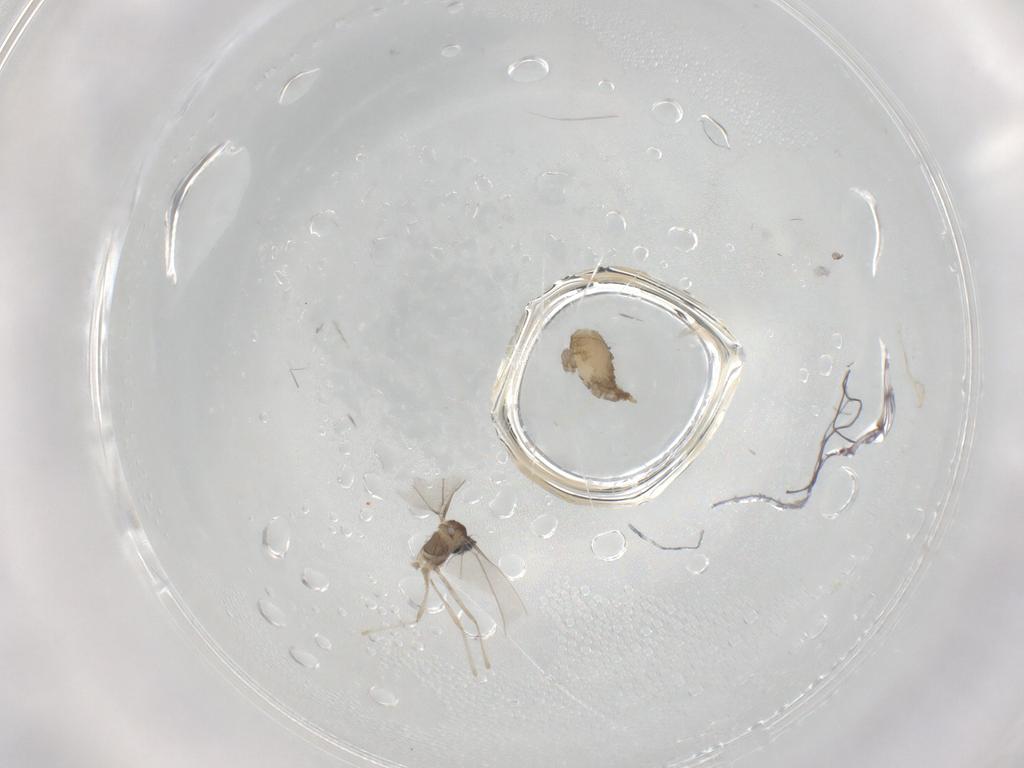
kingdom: Animalia
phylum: Arthropoda
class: Insecta
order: Diptera
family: Cecidomyiidae
